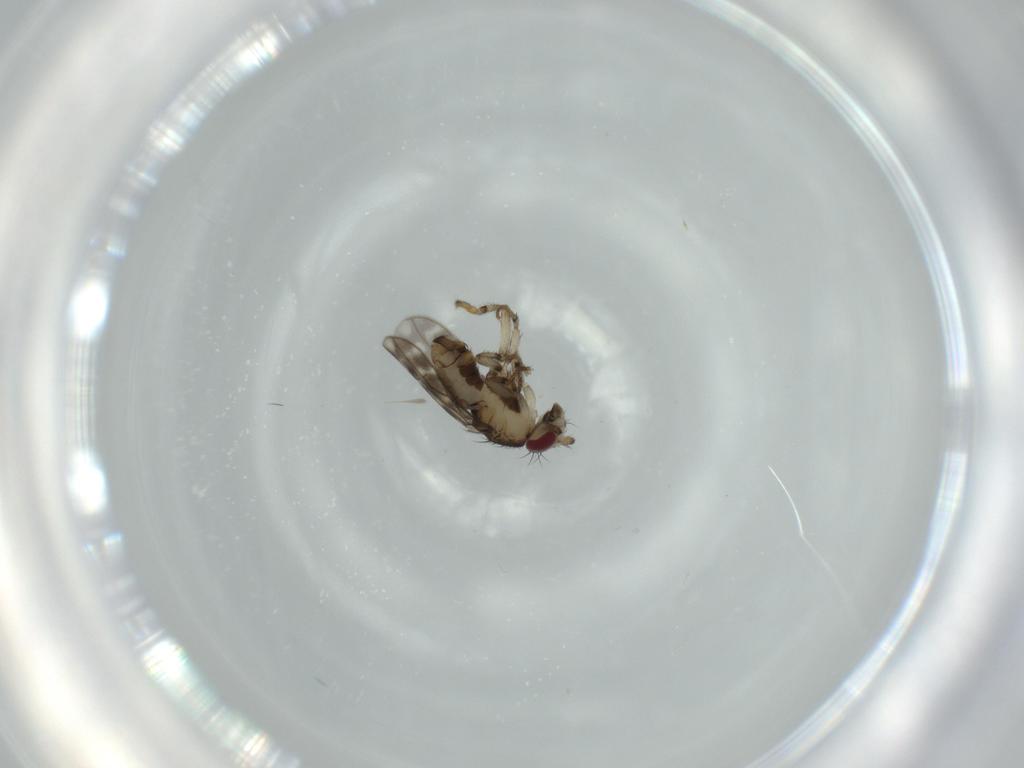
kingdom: Animalia
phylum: Arthropoda
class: Insecta
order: Diptera
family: Sphaeroceridae
